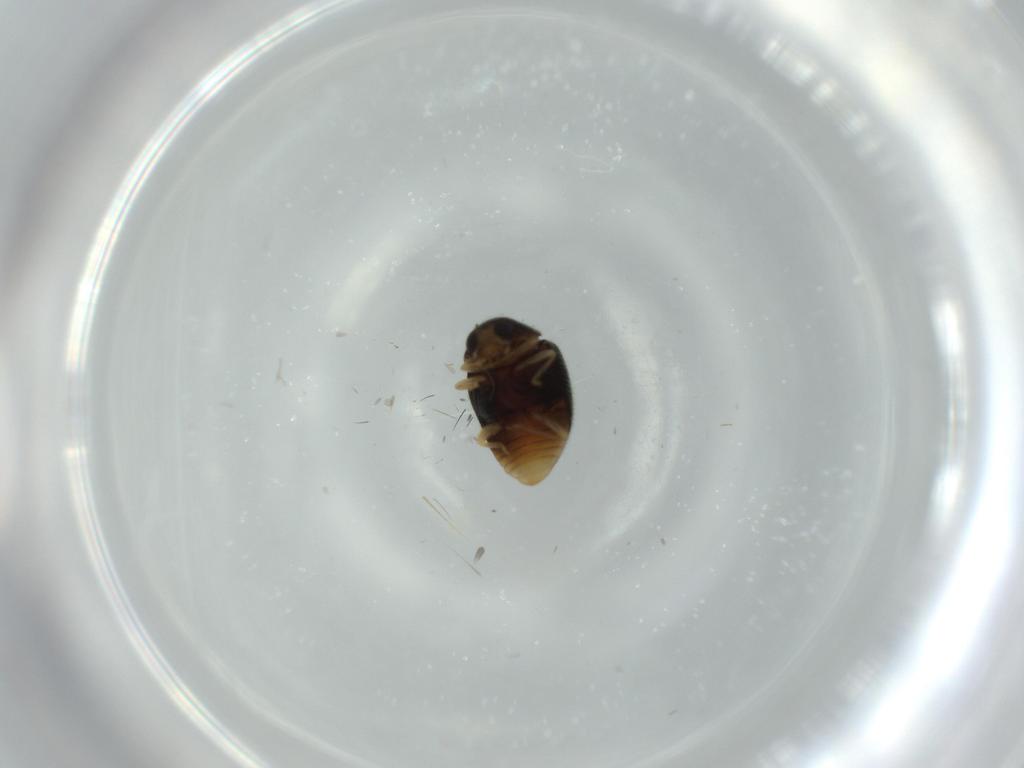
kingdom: Animalia
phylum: Arthropoda
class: Insecta
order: Coleoptera
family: Coccinellidae
